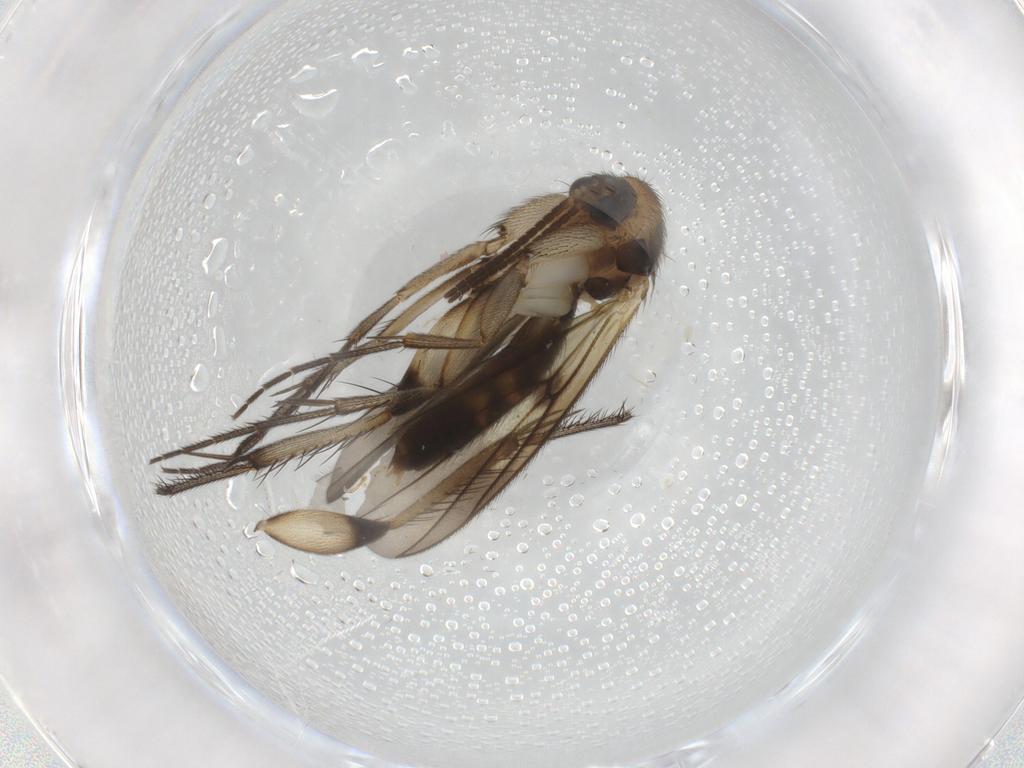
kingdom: Animalia
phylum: Arthropoda
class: Insecta
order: Diptera
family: Mycetophilidae
